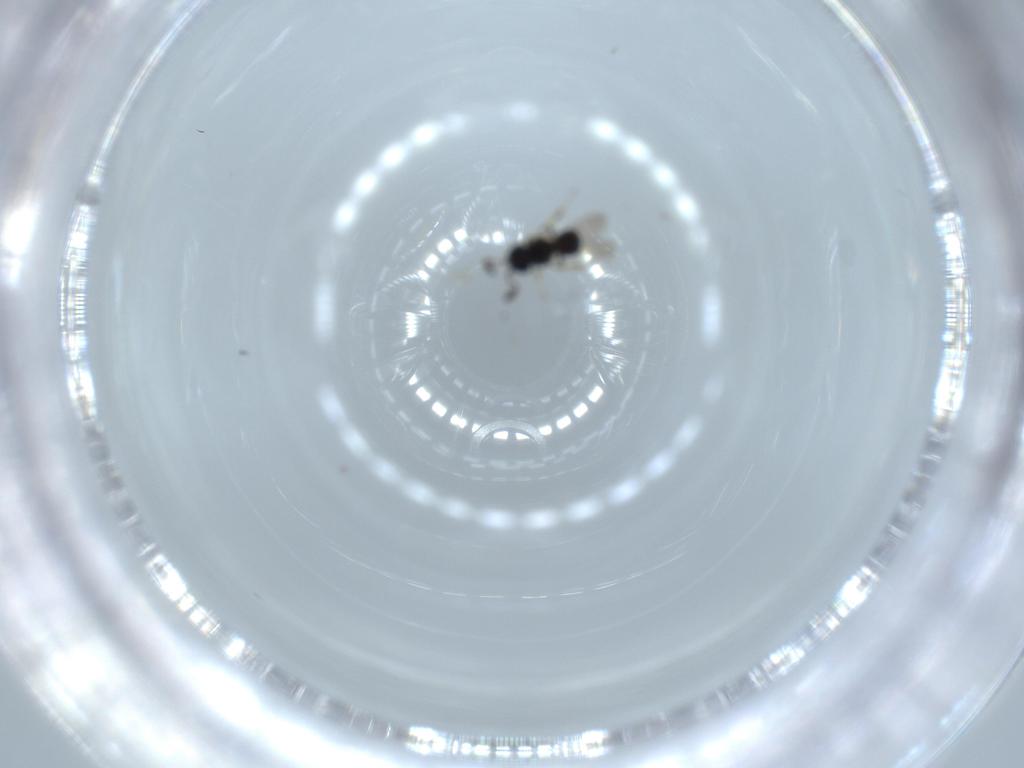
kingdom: Animalia
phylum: Arthropoda
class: Insecta
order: Hymenoptera
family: Scelionidae
